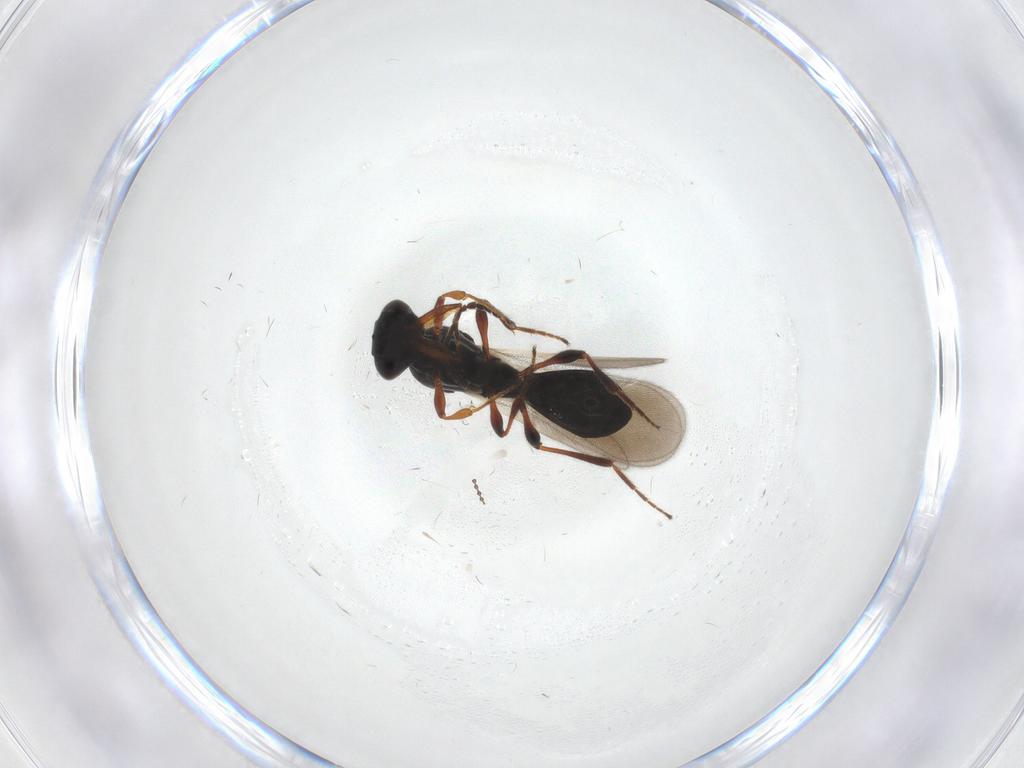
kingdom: Animalia
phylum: Arthropoda
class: Insecta
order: Hymenoptera
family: Platygastridae
